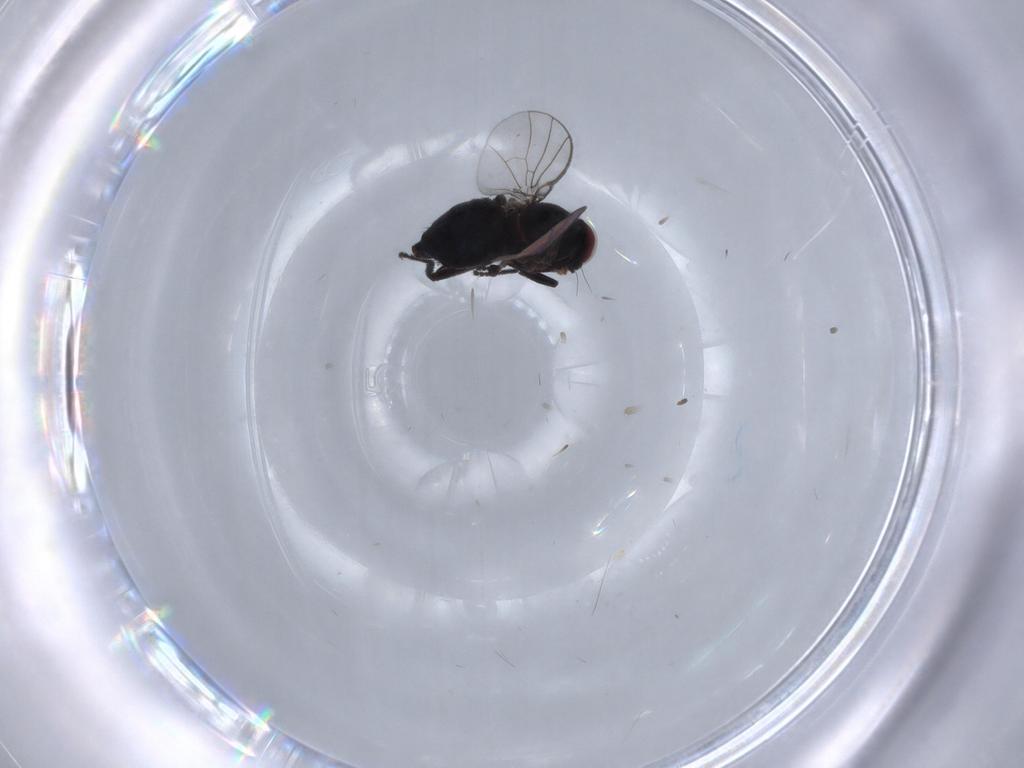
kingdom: Animalia
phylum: Arthropoda
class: Insecta
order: Diptera
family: Agromyzidae
